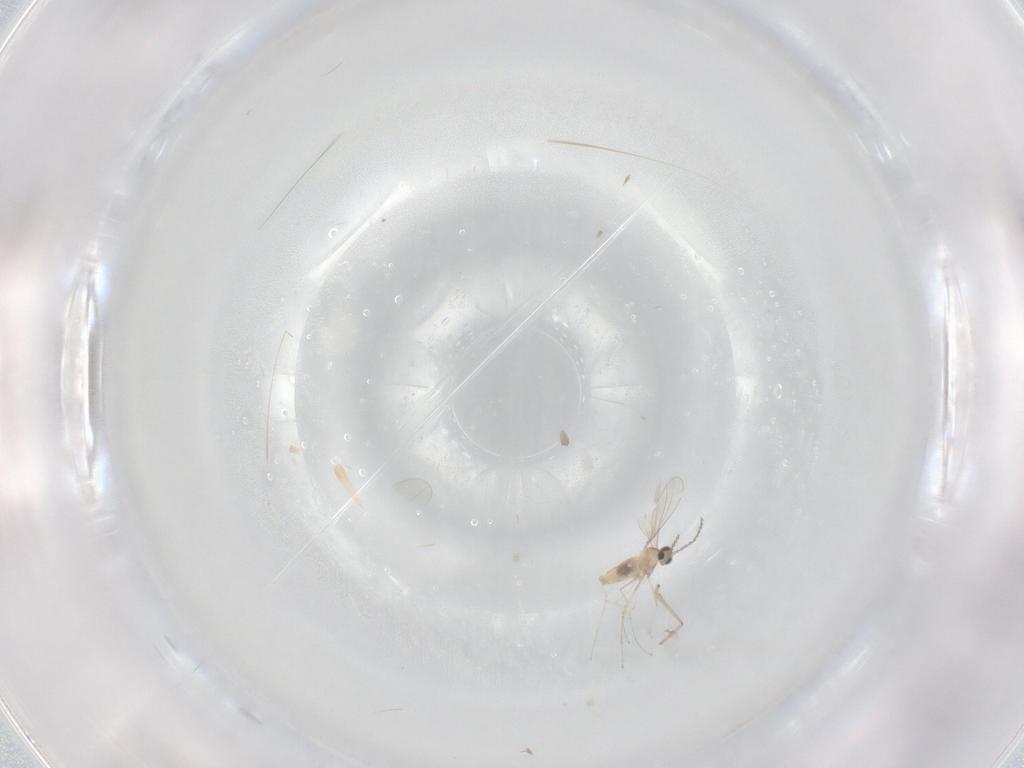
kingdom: Animalia
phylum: Arthropoda
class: Insecta
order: Diptera
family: Cecidomyiidae
